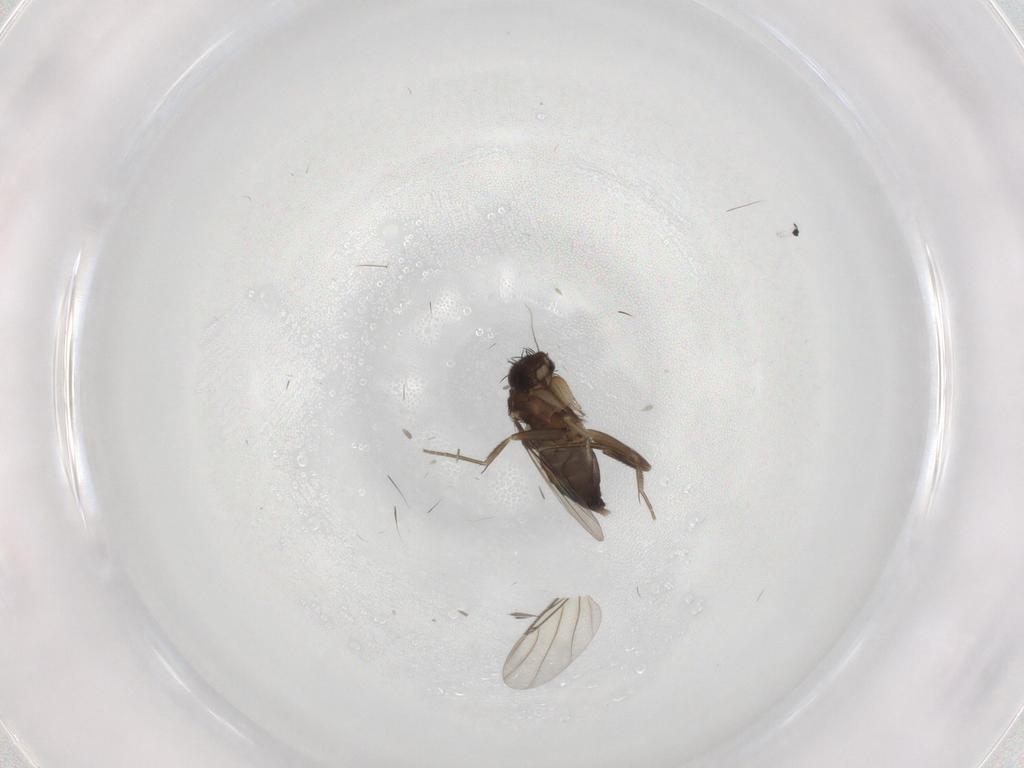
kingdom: Animalia
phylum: Arthropoda
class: Insecta
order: Diptera
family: Phoridae
